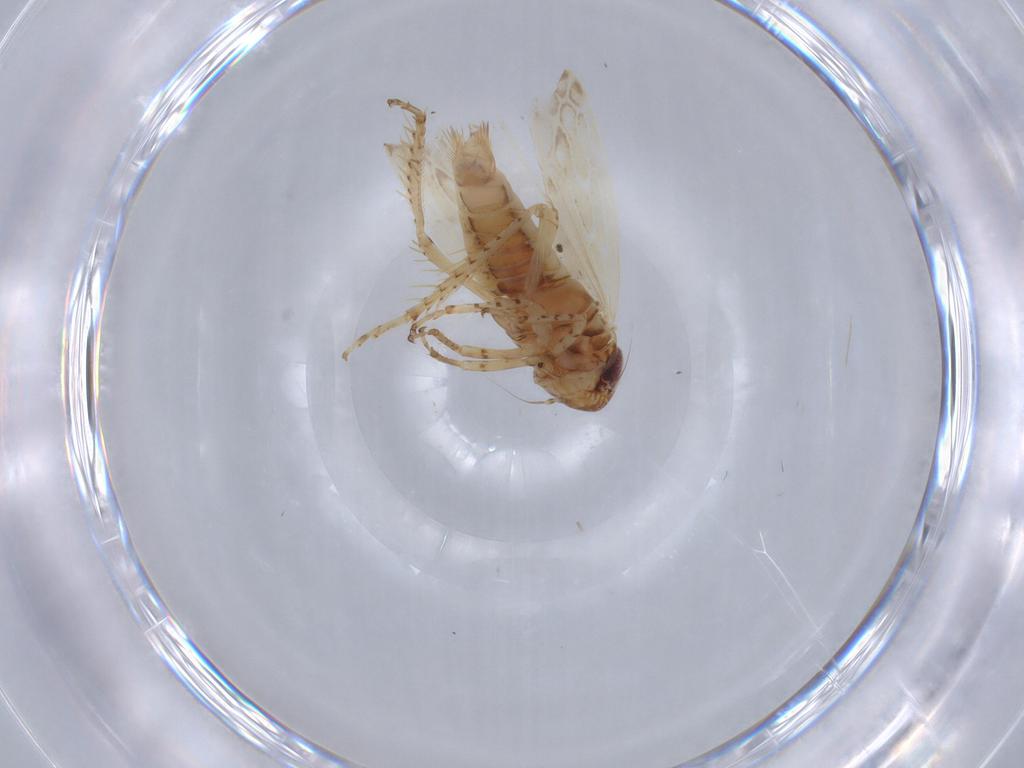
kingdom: Animalia
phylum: Arthropoda
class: Insecta
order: Hemiptera
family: Cicadellidae
